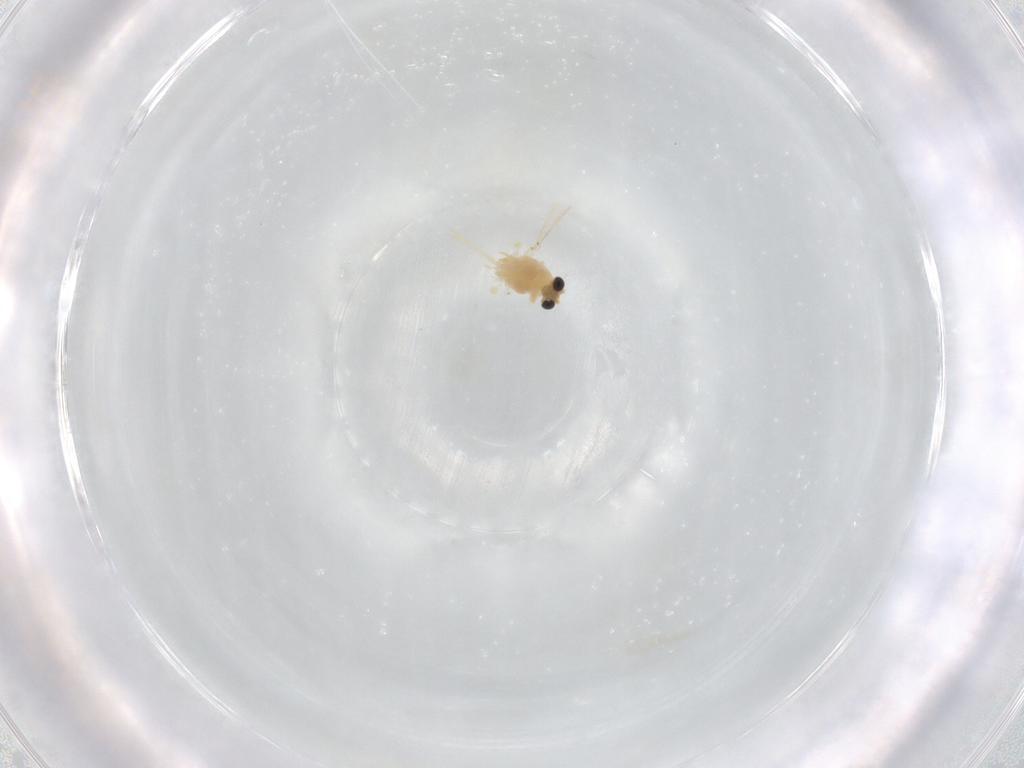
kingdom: Animalia
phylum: Arthropoda
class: Insecta
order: Diptera
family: Chironomidae
